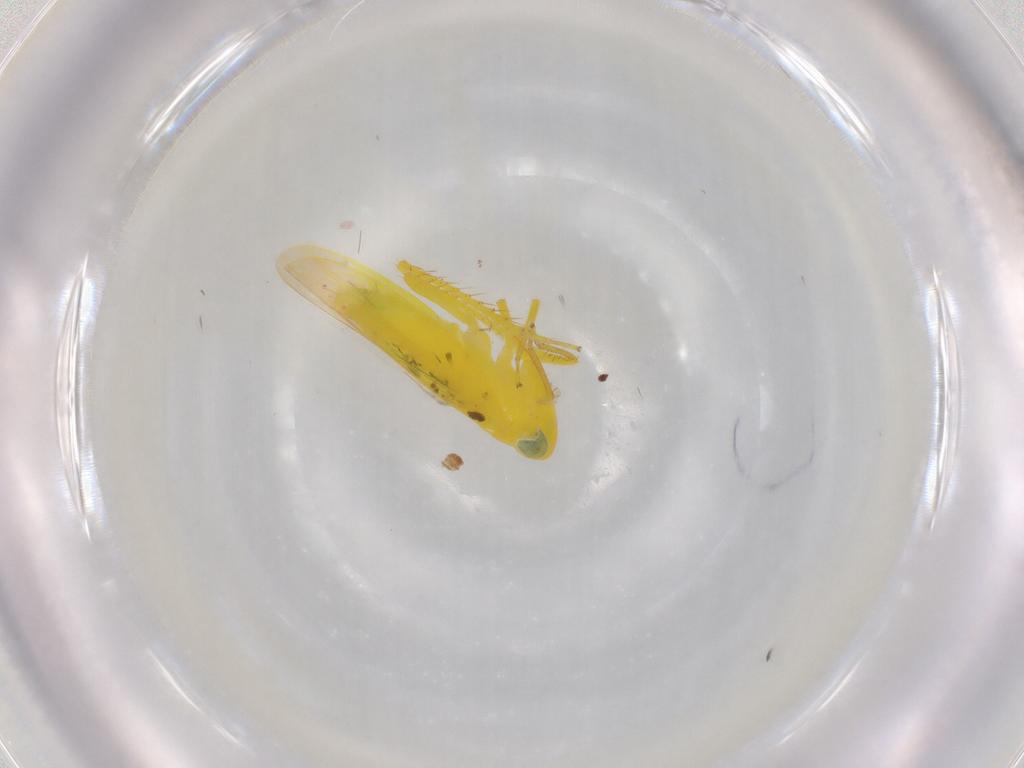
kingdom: Animalia
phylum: Arthropoda
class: Insecta
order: Hemiptera
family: Cicadellidae
